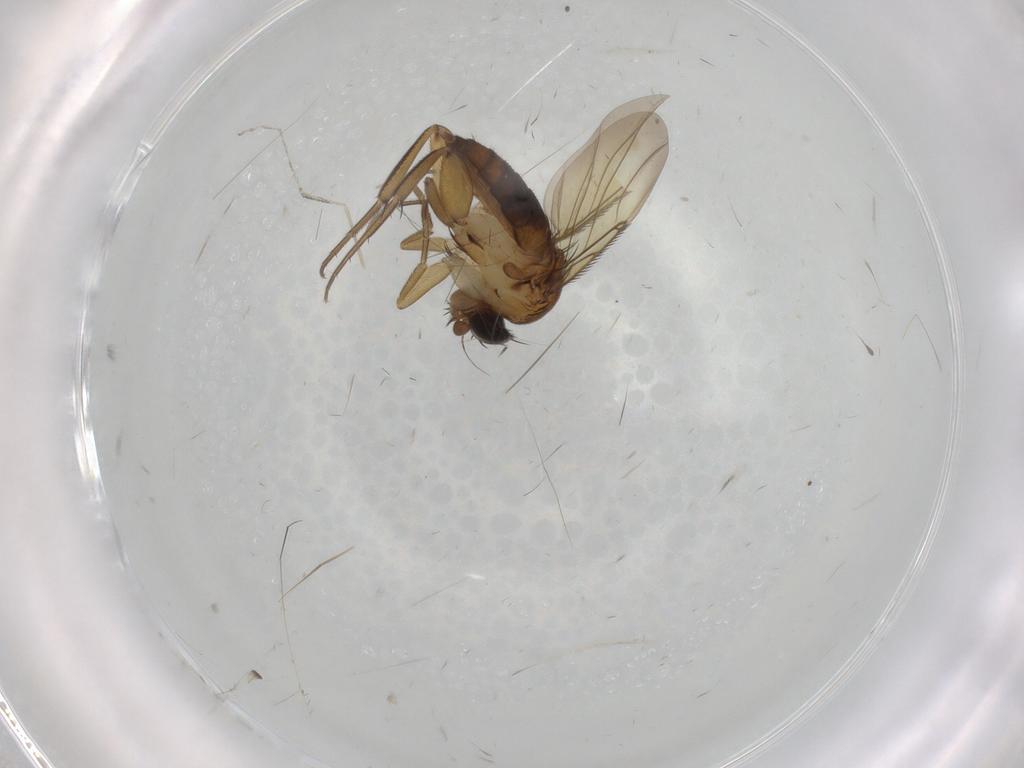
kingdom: Animalia
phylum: Arthropoda
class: Insecta
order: Diptera
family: Phoridae
